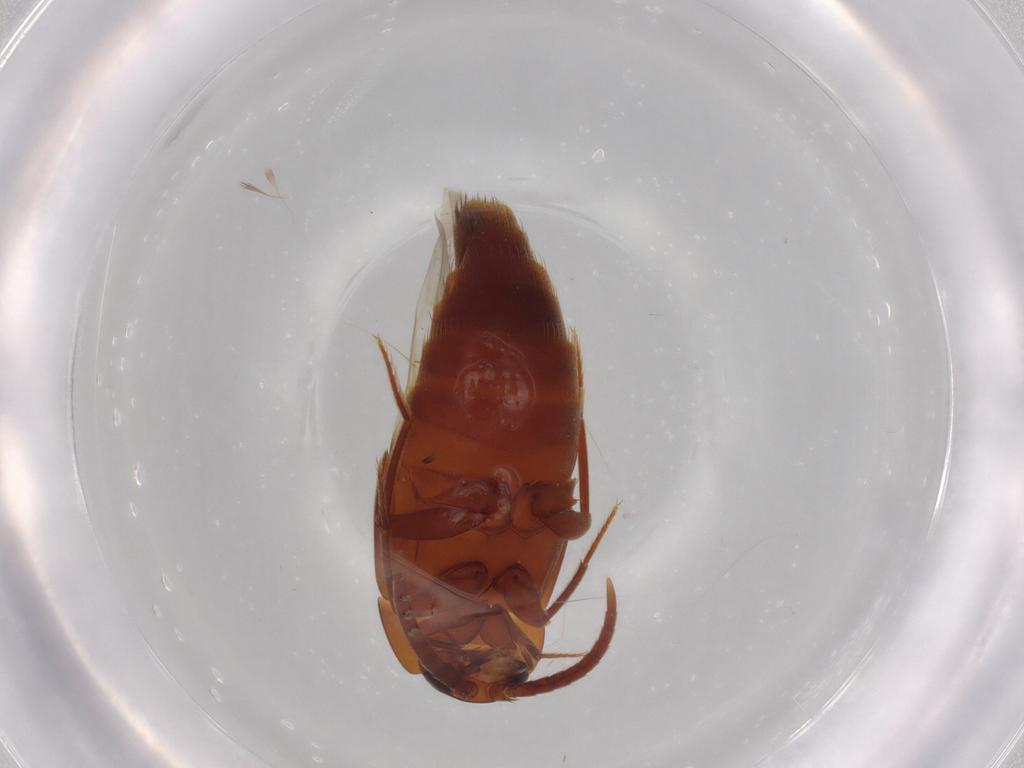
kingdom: Animalia
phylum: Arthropoda
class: Insecta
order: Coleoptera
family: Staphylinidae
